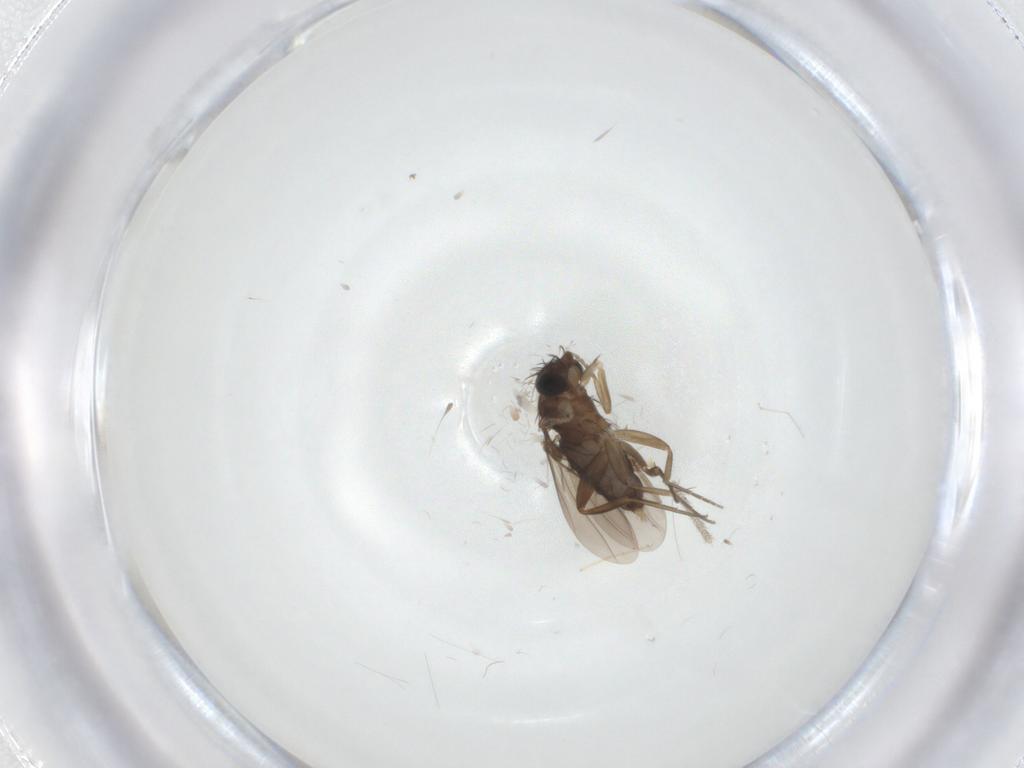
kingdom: Animalia
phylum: Arthropoda
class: Insecta
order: Diptera
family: Phoridae
